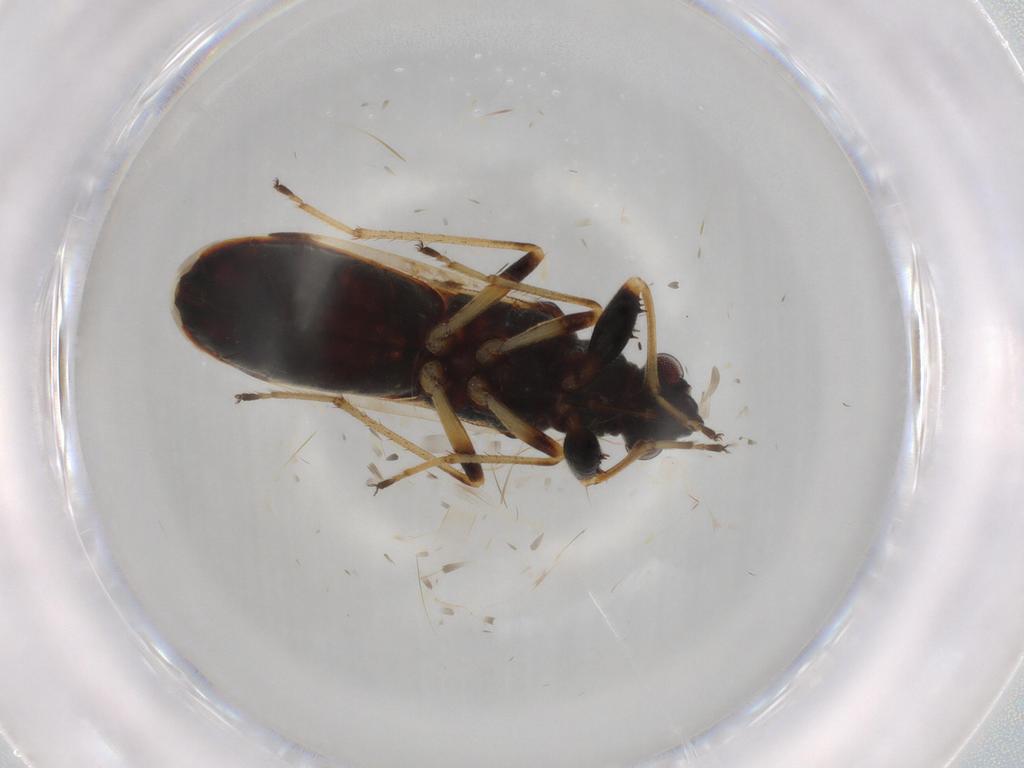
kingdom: Animalia
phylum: Arthropoda
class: Insecta
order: Hemiptera
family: Rhyparochromidae
